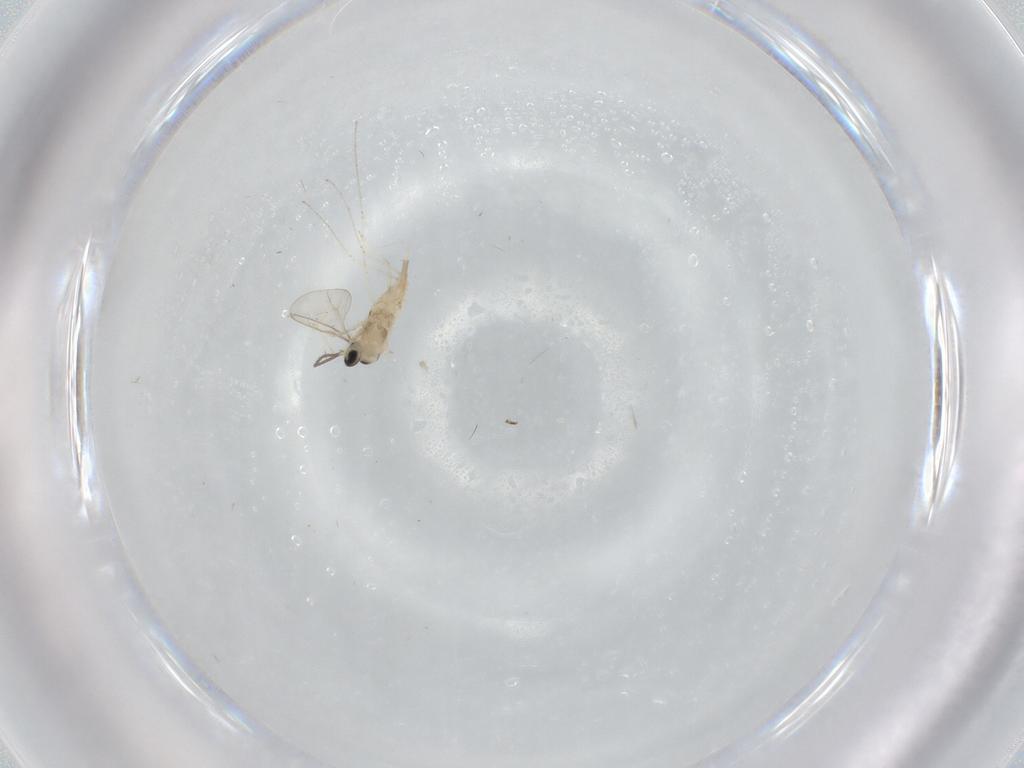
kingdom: Animalia
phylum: Arthropoda
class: Insecta
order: Diptera
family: Cecidomyiidae
